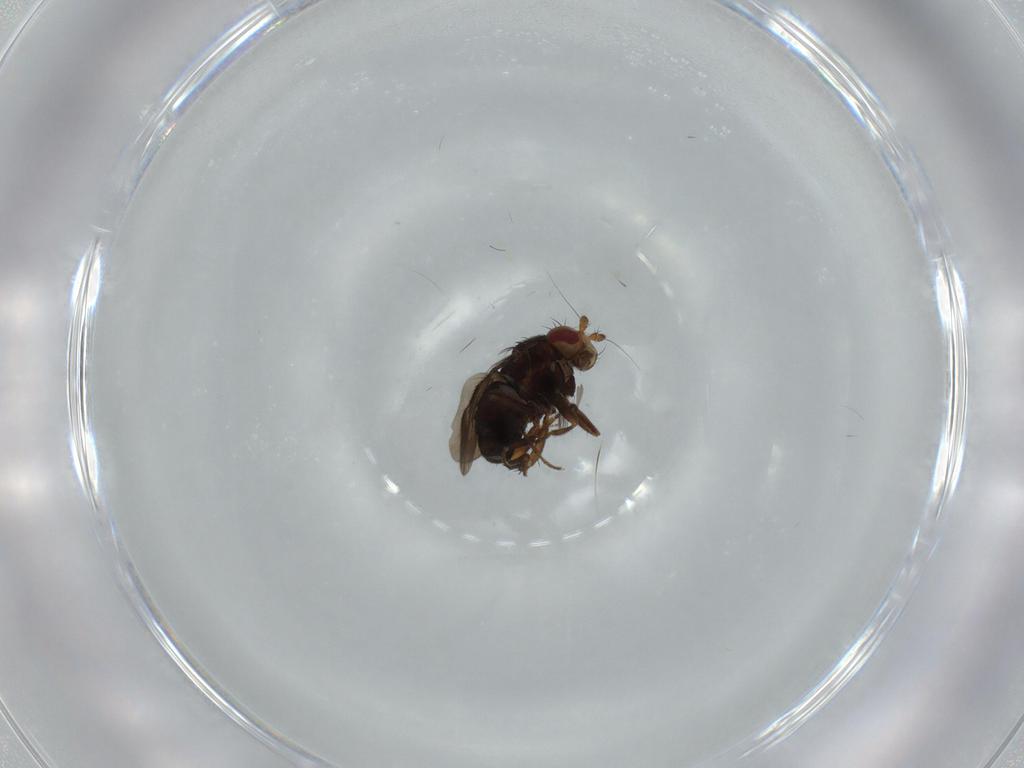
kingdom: Animalia
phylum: Arthropoda
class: Insecta
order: Diptera
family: Sphaeroceridae
